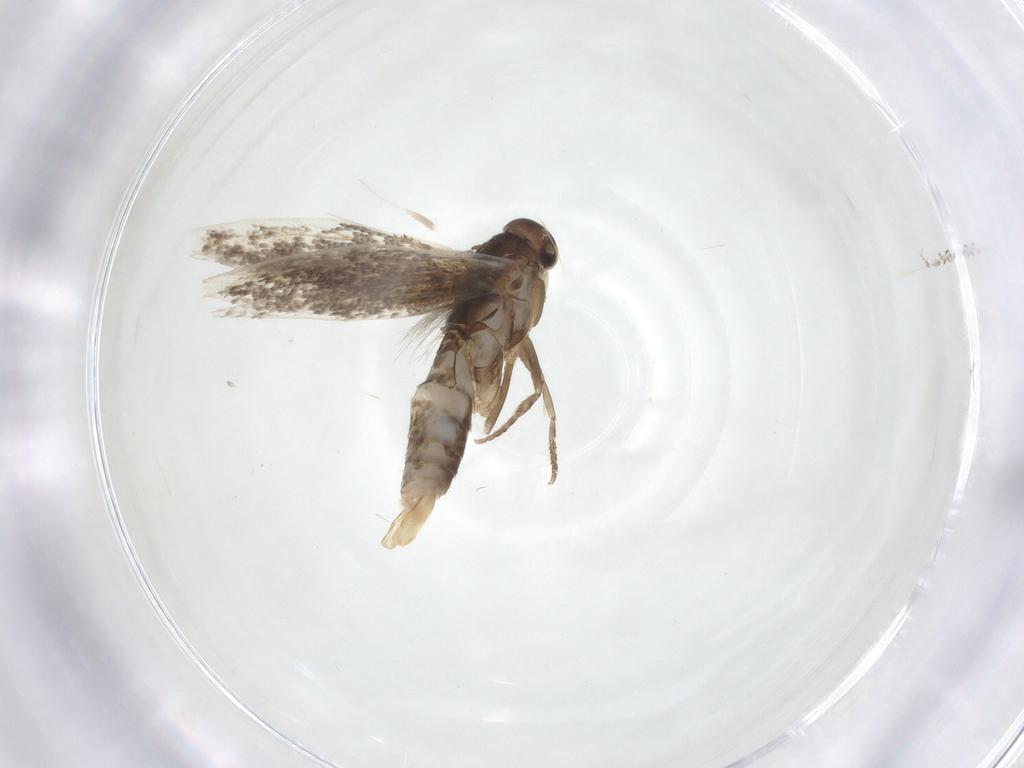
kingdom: Animalia
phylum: Arthropoda
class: Insecta
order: Lepidoptera
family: Elachistidae
